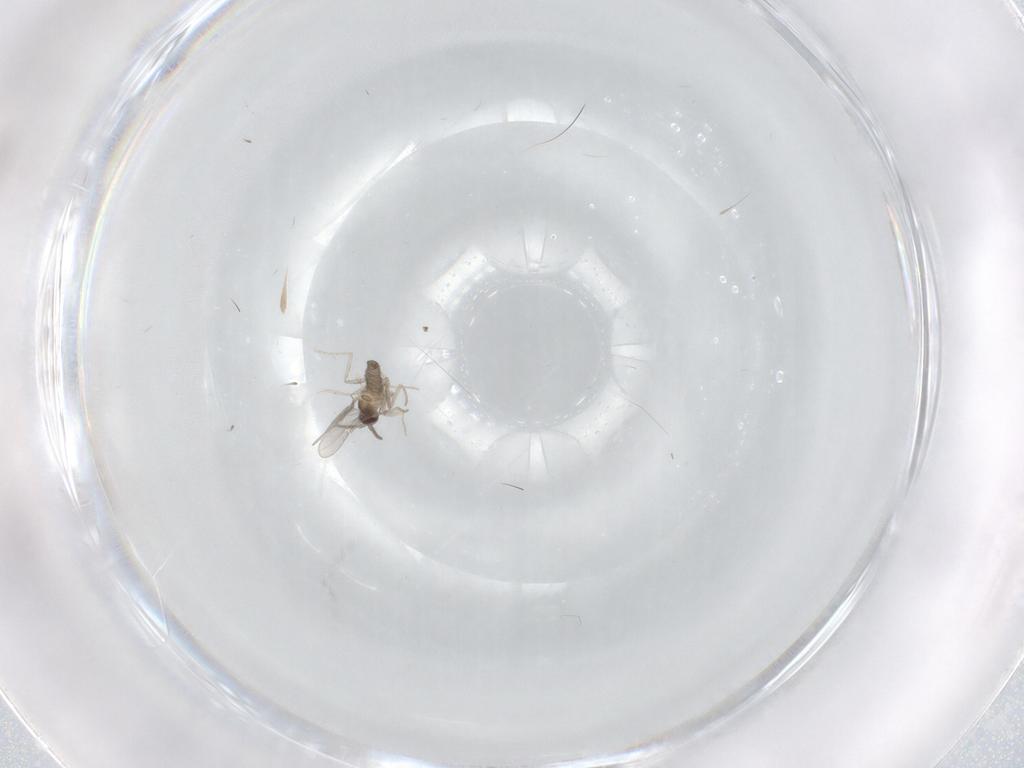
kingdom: Animalia
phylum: Arthropoda
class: Insecta
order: Diptera
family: Cecidomyiidae
